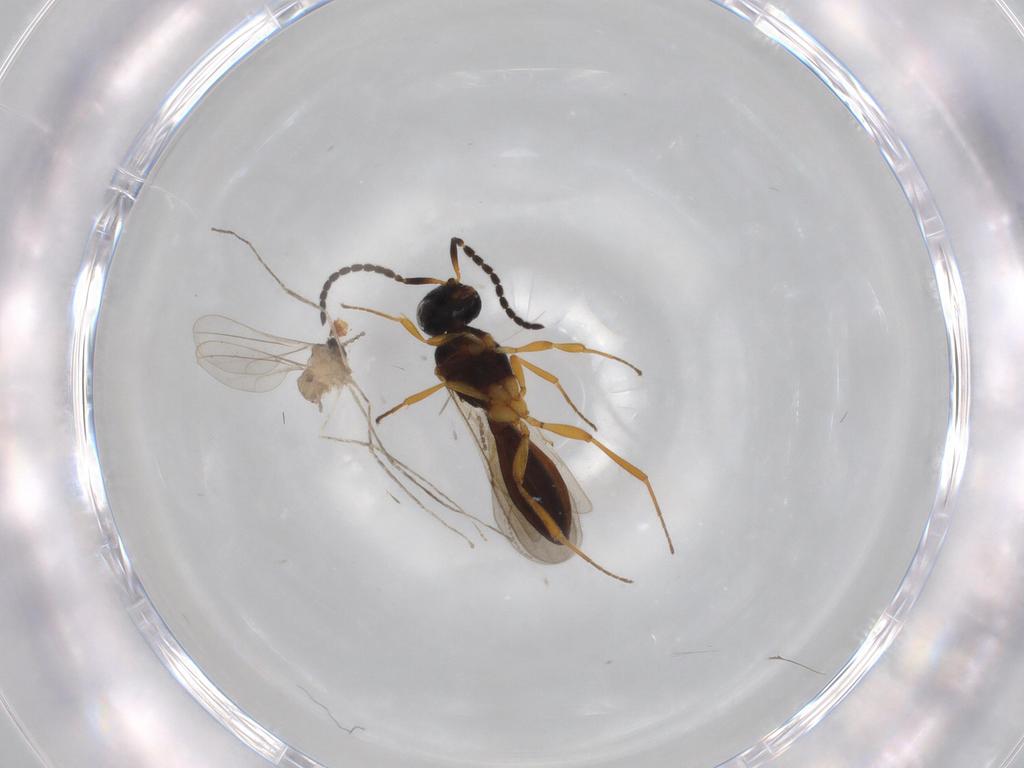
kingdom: Animalia
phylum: Arthropoda
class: Insecta
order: Diptera
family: Cecidomyiidae
